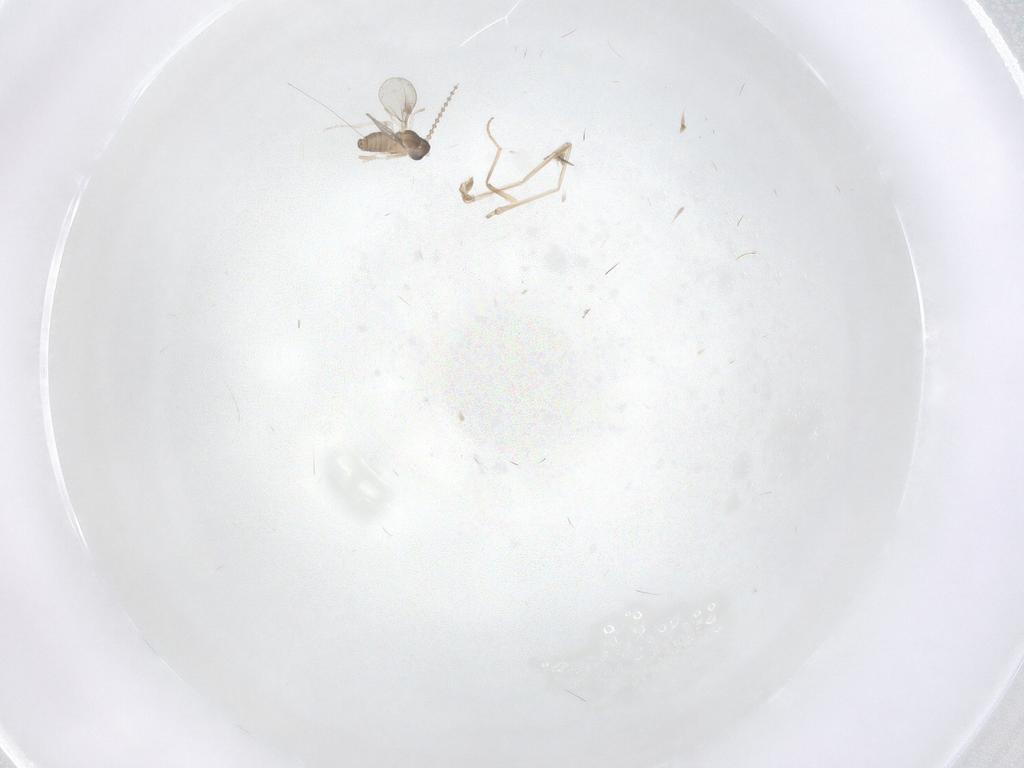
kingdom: Animalia
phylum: Arthropoda
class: Insecta
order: Diptera
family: Cecidomyiidae
